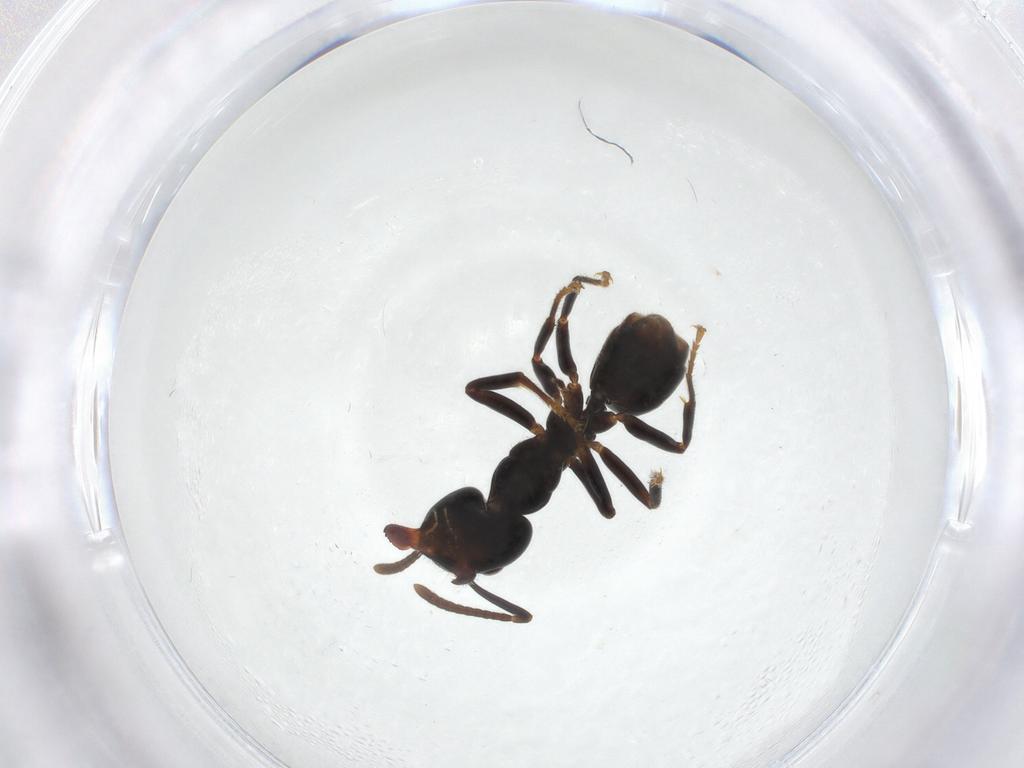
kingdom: Animalia
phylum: Arthropoda
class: Insecta
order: Hymenoptera
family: Formicidae
